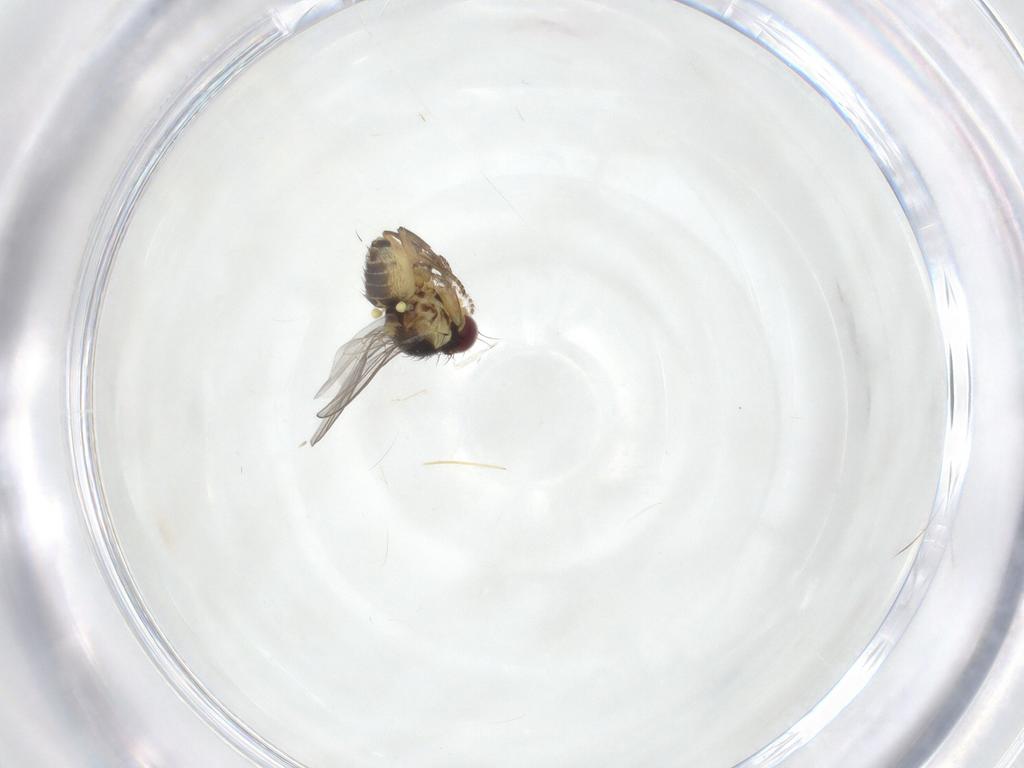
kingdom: Animalia
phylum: Arthropoda
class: Insecta
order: Diptera
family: Agromyzidae
